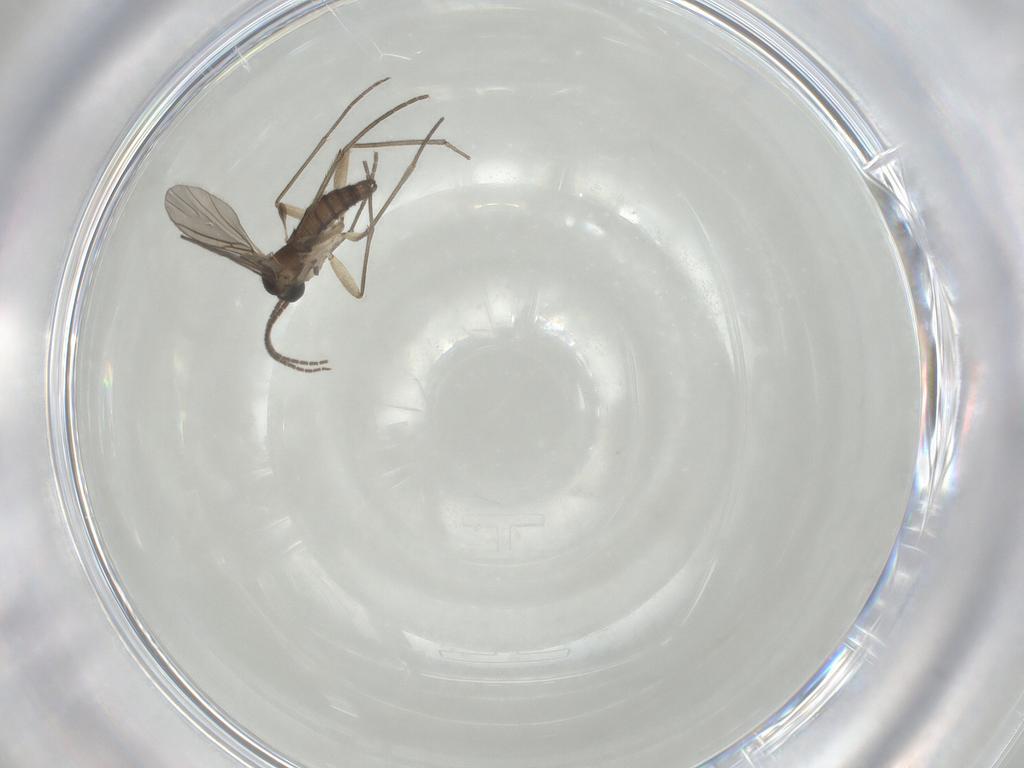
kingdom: Animalia
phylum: Arthropoda
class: Insecta
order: Diptera
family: Sciaridae
